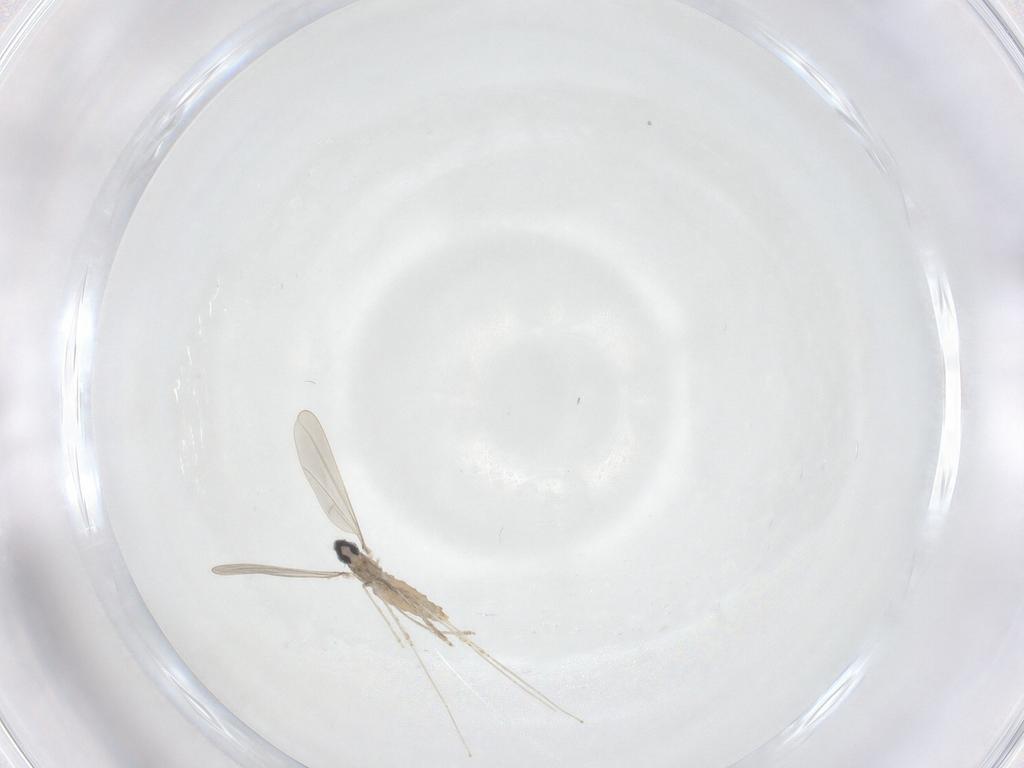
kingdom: Animalia
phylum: Arthropoda
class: Insecta
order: Diptera
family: Cecidomyiidae
